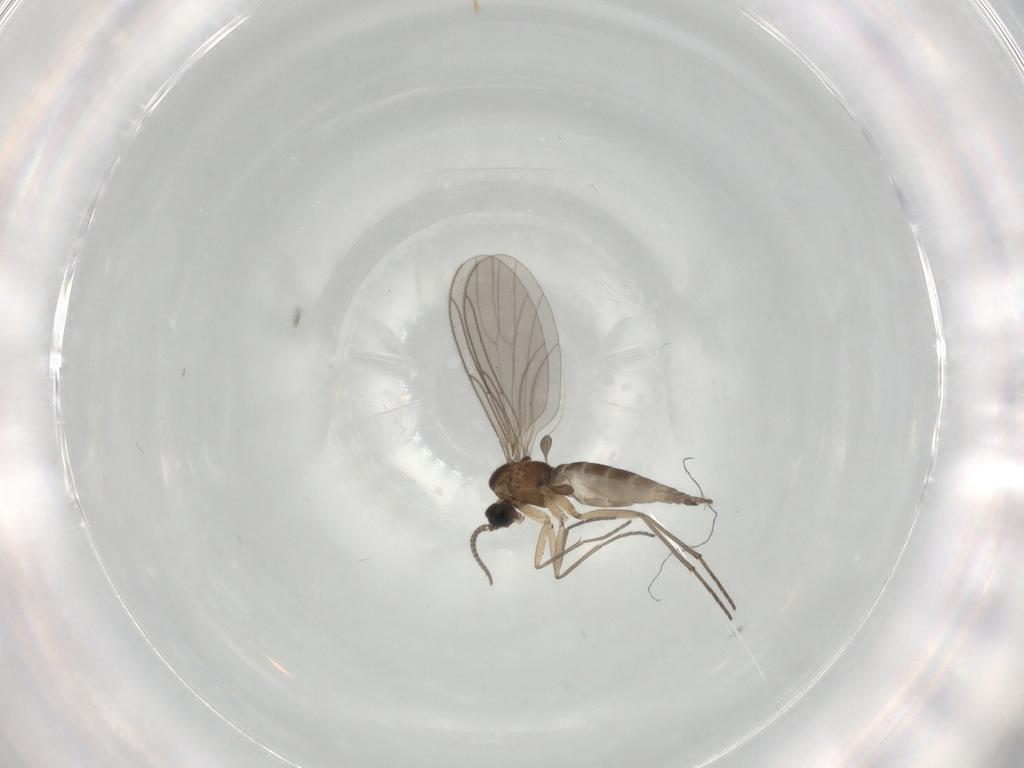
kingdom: Animalia
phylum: Arthropoda
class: Insecta
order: Diptera
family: Sciaridae
